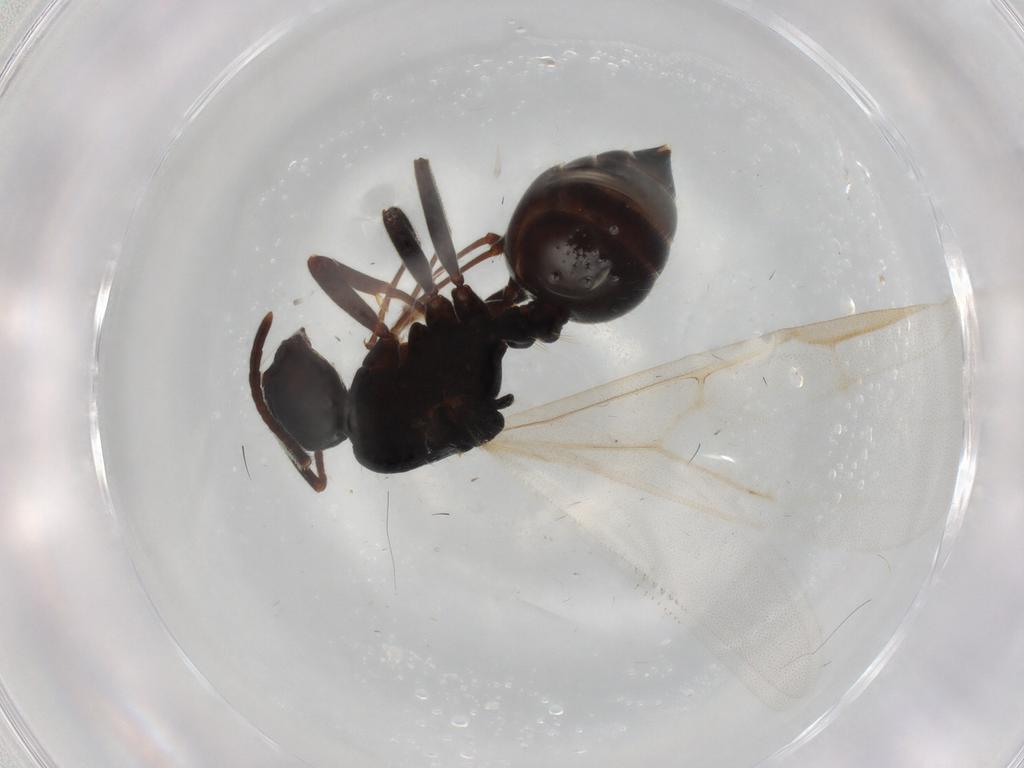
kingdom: Animalia
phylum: Arthropoda
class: Insecta
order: Hymenoptera
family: Formicidae
